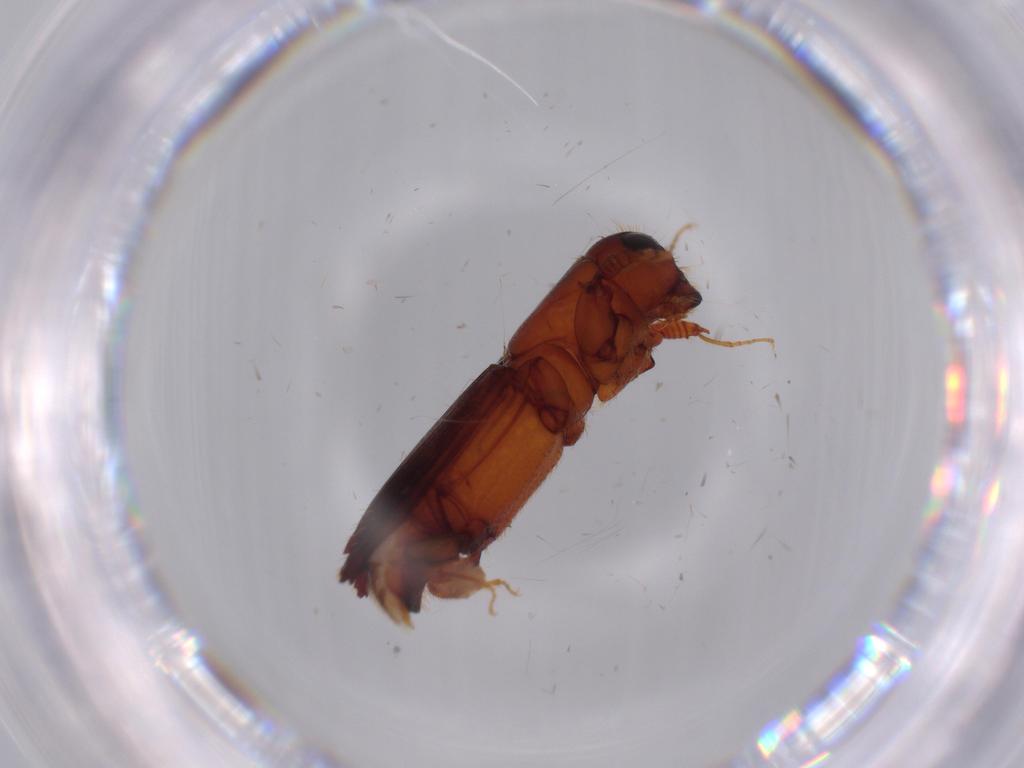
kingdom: Animalia
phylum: Arthropoda
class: Insecta
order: Coleoptera
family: Curculionidae
